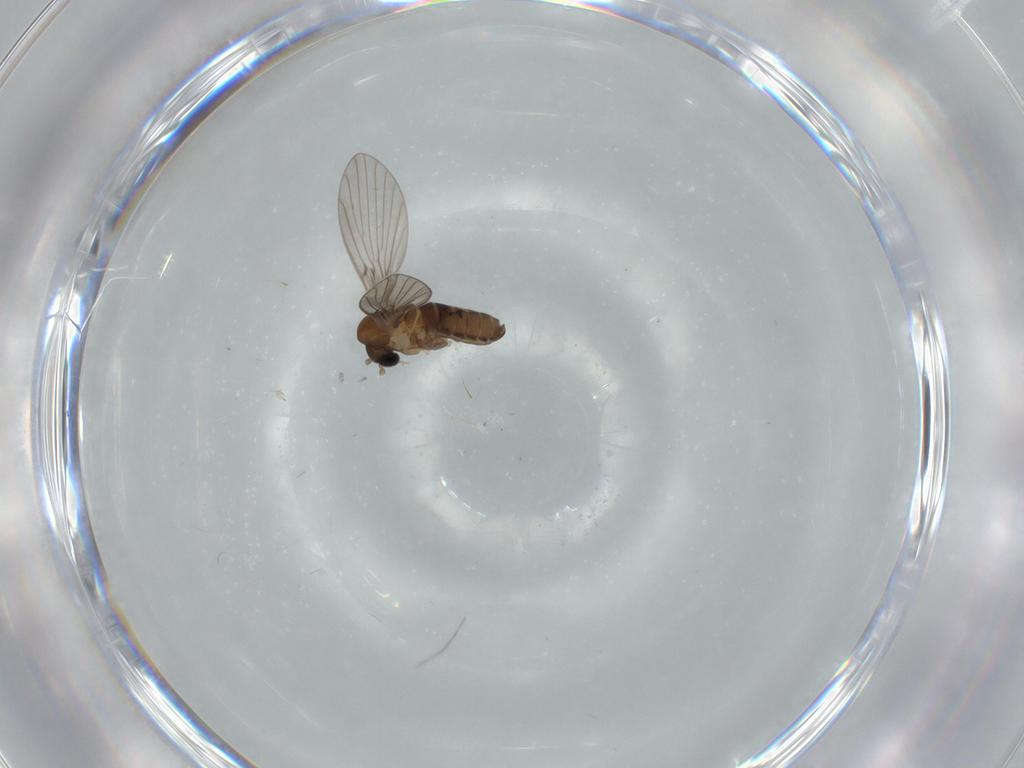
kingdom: Animalia
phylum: Arthropoda
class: Insecta
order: Diptera
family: Psychodidae
